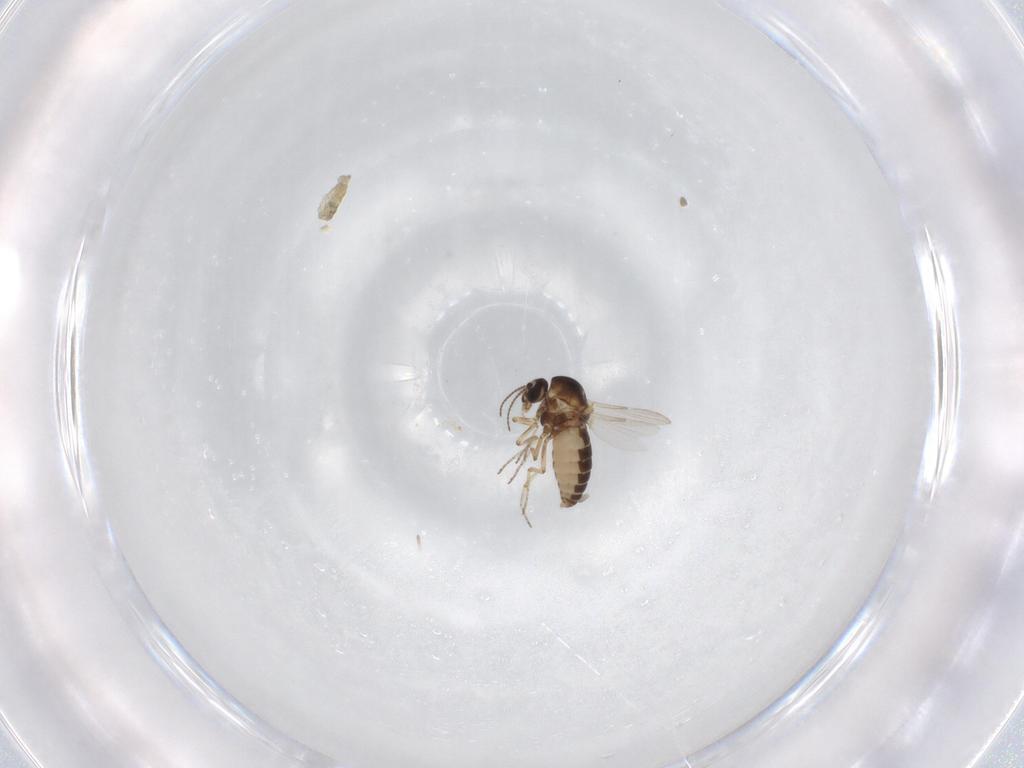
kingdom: Animalia
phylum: Arthropoda
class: Insecta
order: Diptera
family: Ceratopogonidae
